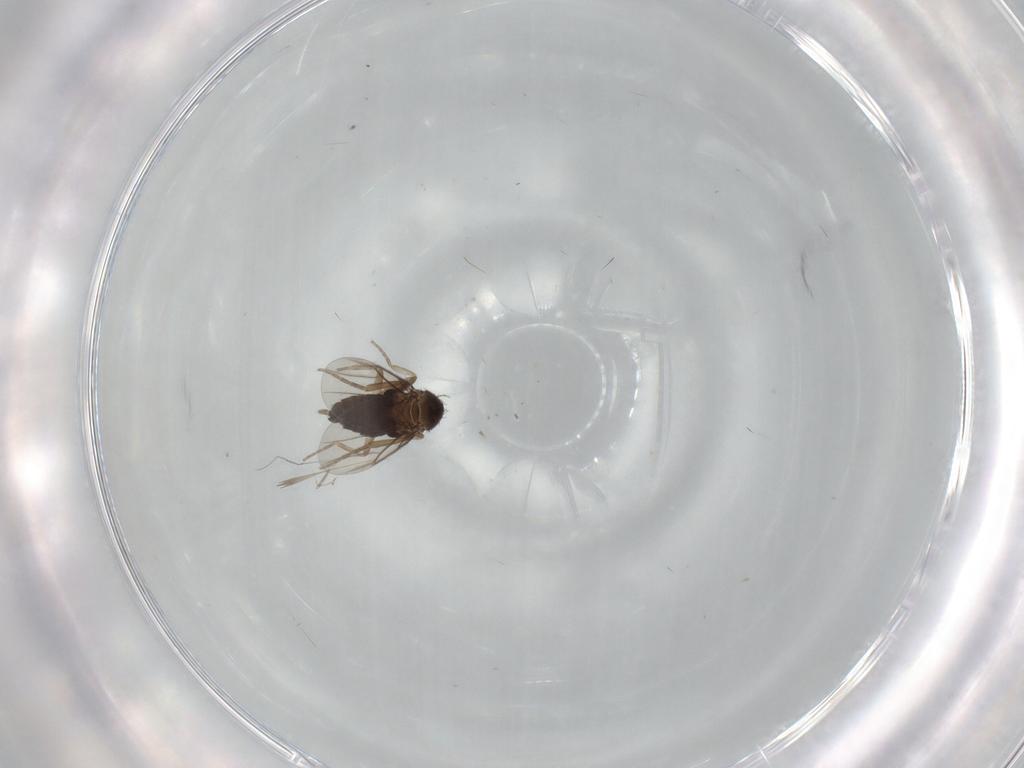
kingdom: Animalia
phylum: Arthropoda
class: Insecta
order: Diptera
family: Phoridae
